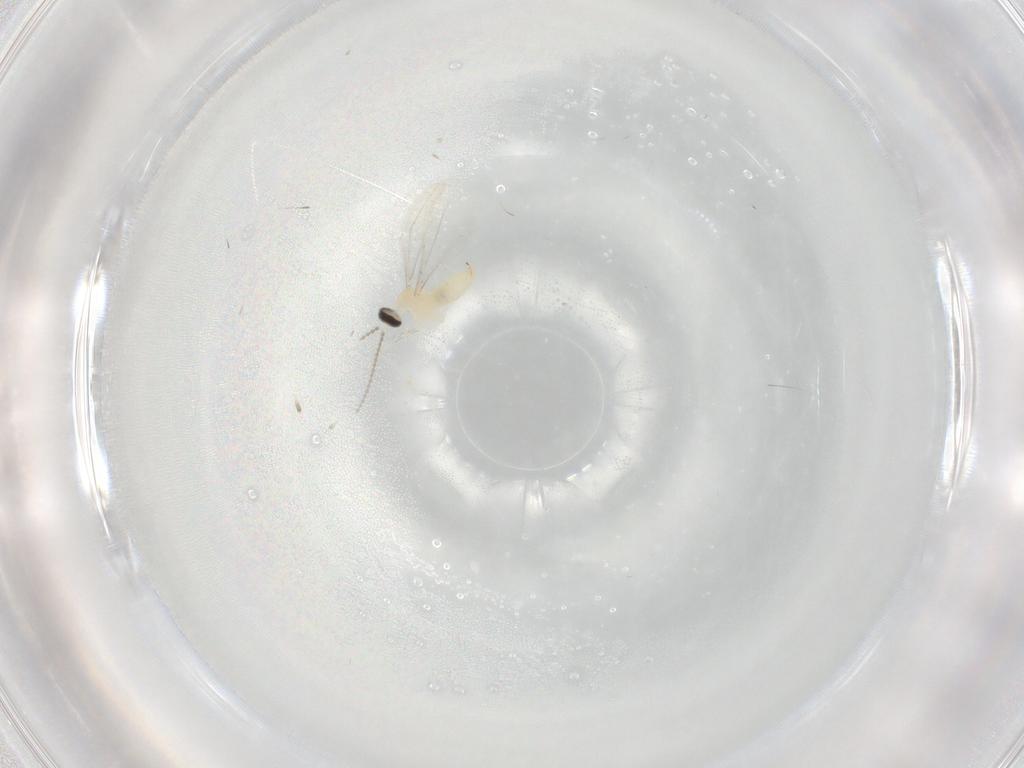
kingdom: Animalia
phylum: Arthropoda
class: Insecta
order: Diptera
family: Cecidomyiidae
